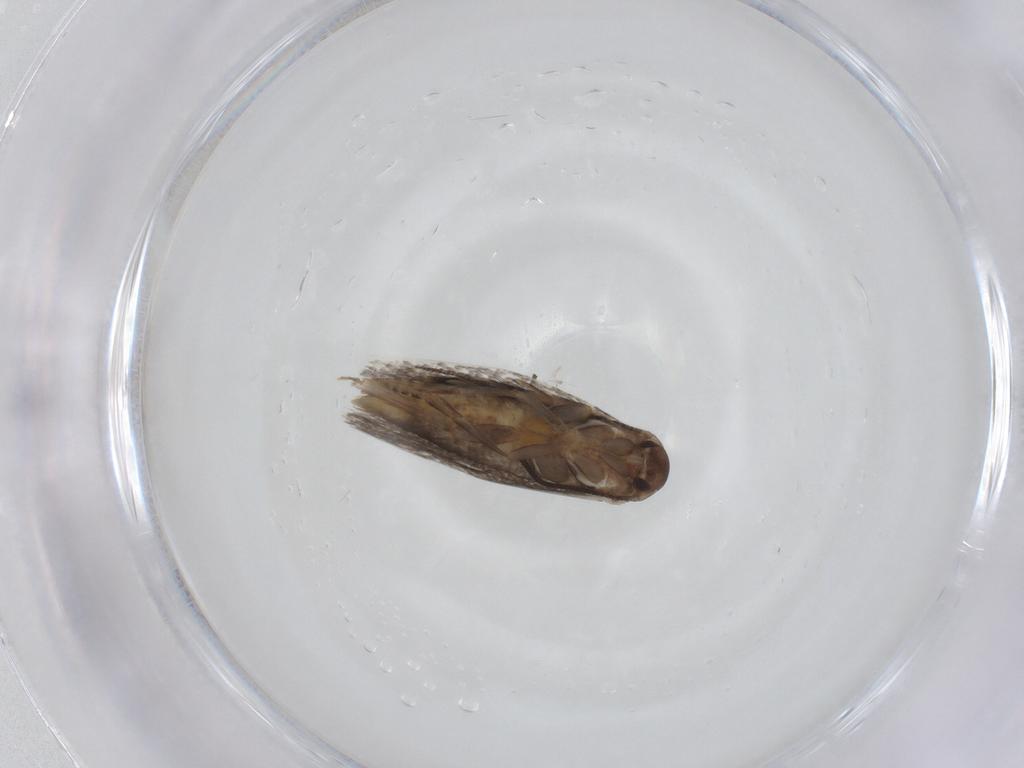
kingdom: Animalia
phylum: Arthropoda
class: Insecta
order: Lepidoptera
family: Elachistidae
